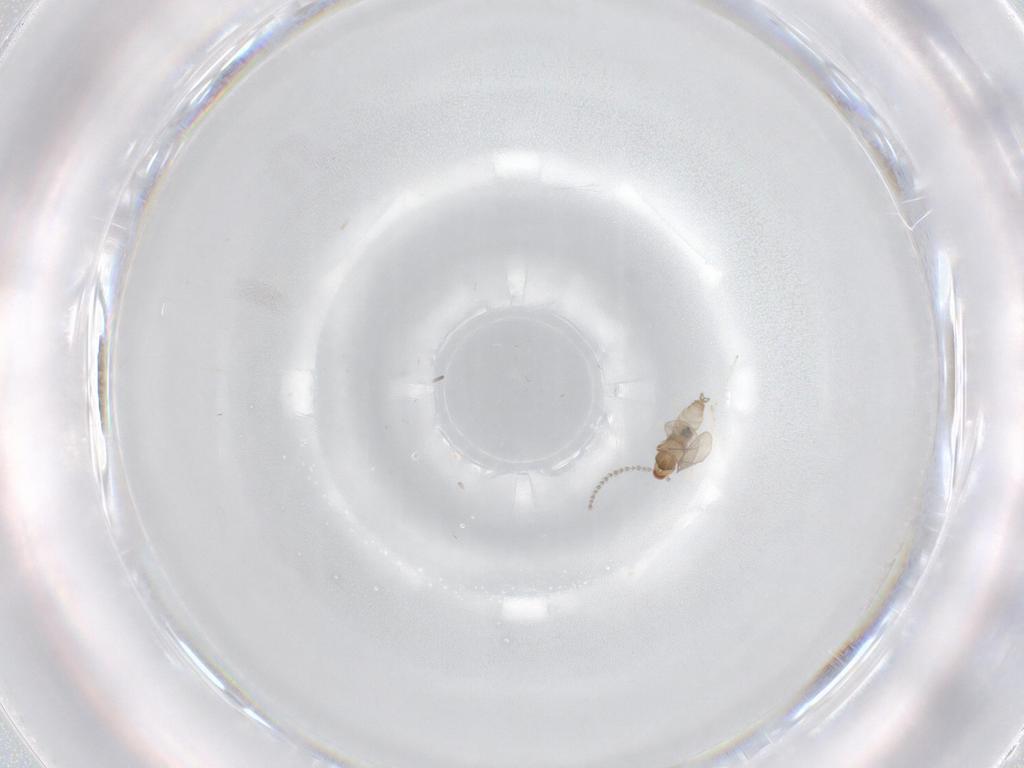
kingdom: Animalia
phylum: Arthropoda
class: Insecta
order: Diptera
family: Cecidomyiidae
